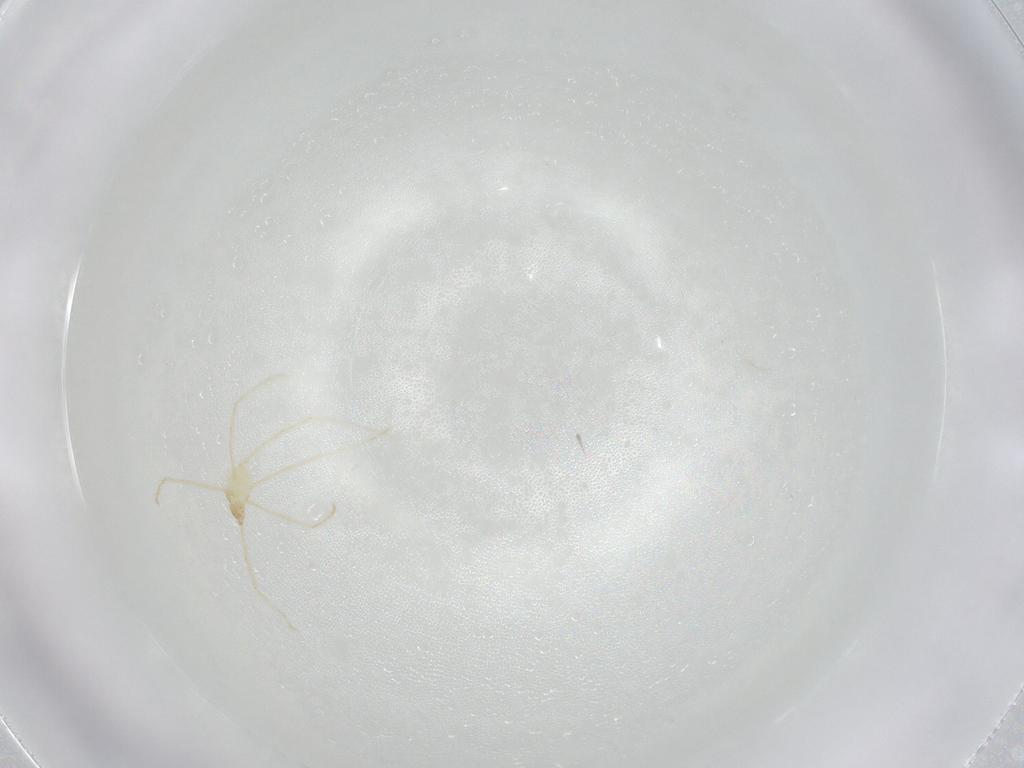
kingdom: Animalia
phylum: Arthropoda
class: Arachnida
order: Trombidiformes
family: Erythraeidae
